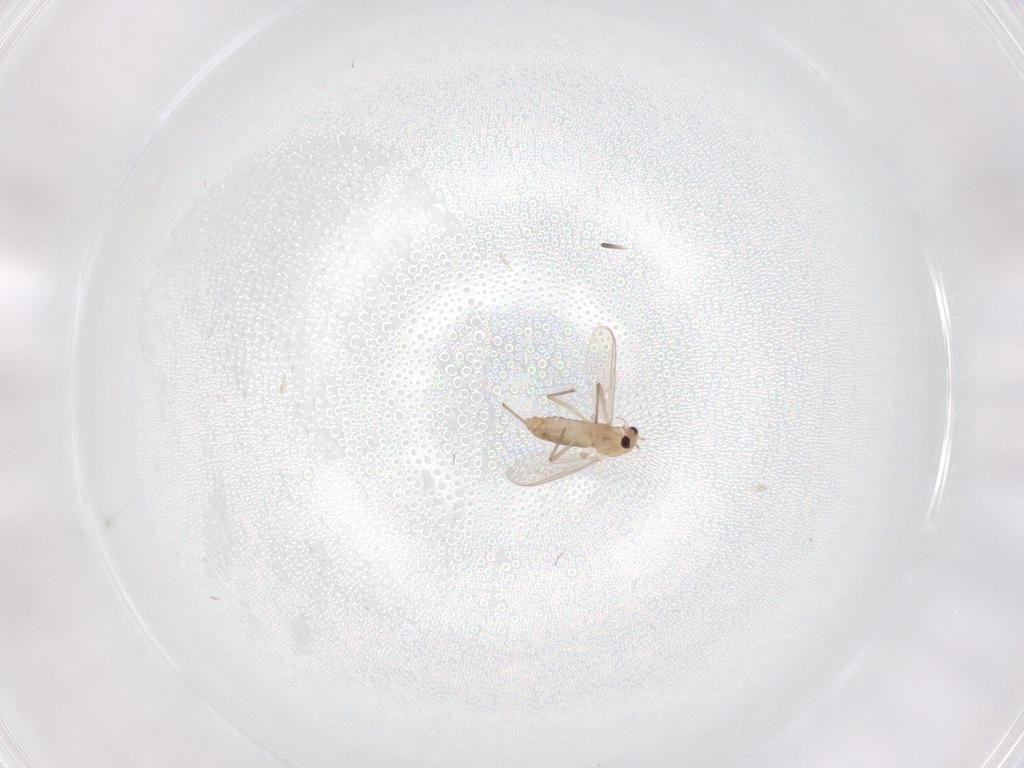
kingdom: Animalia
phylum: Arthropoda
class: Insecta
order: Diptera
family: Chironomidae
